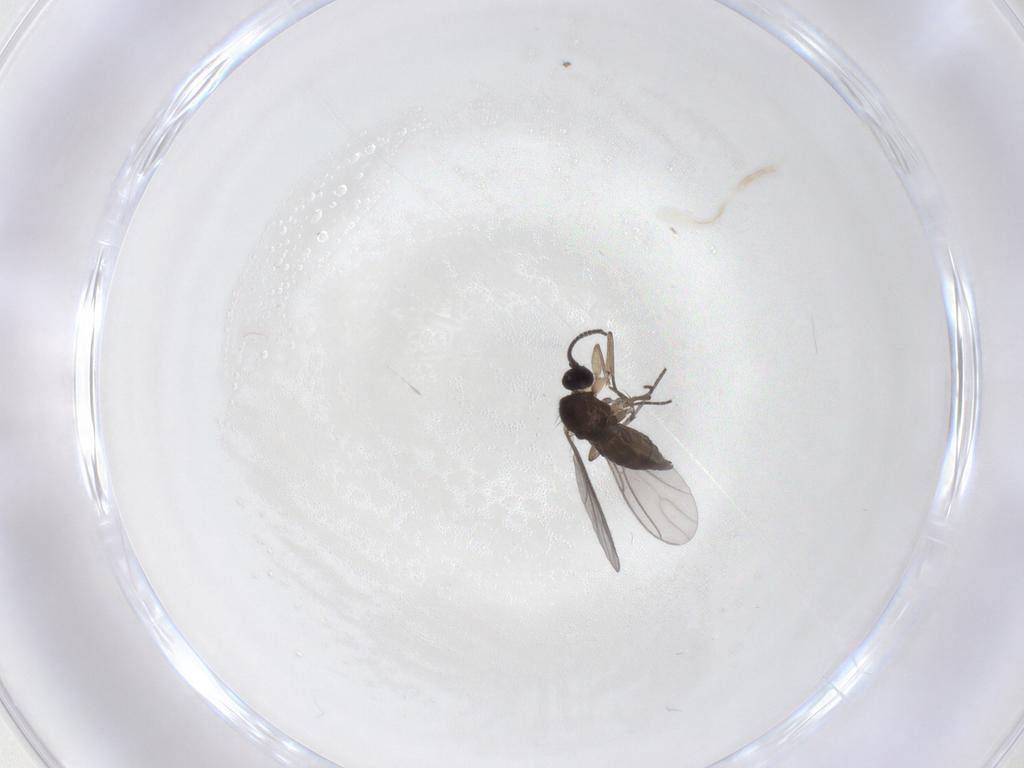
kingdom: Animalia
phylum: Arthropoda
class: Insecta
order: Diptera
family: Sciaridae
